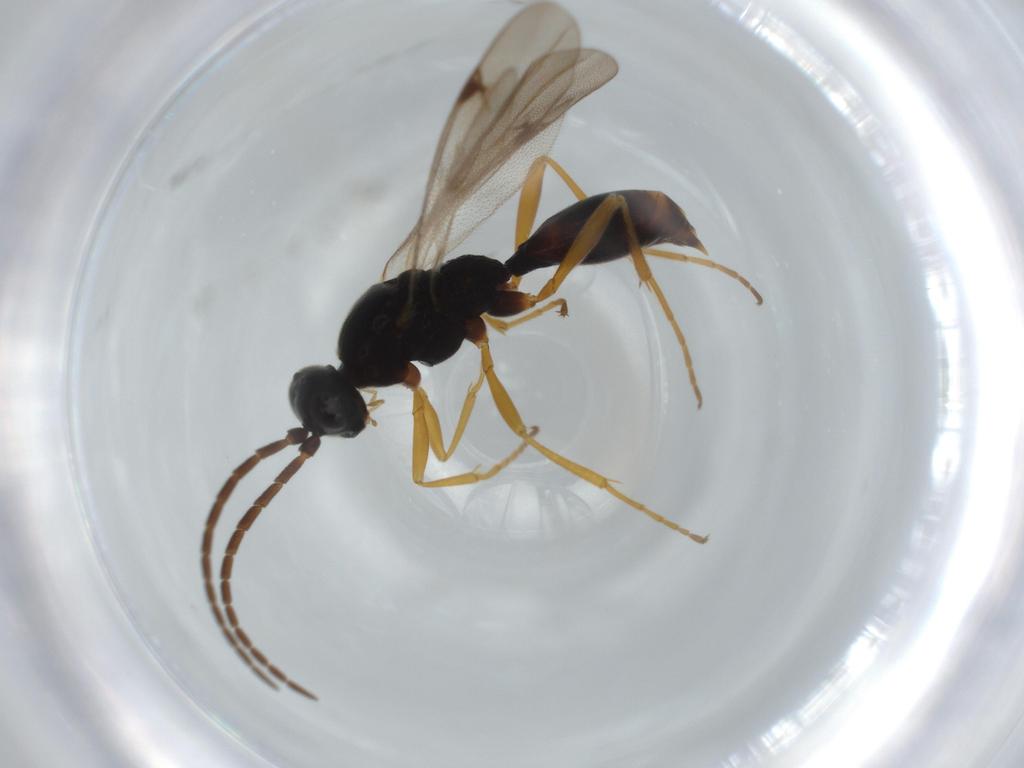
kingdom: Animalia
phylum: Arthropoda
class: Insecta
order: Hymenoptera
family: Proctotrupidae
